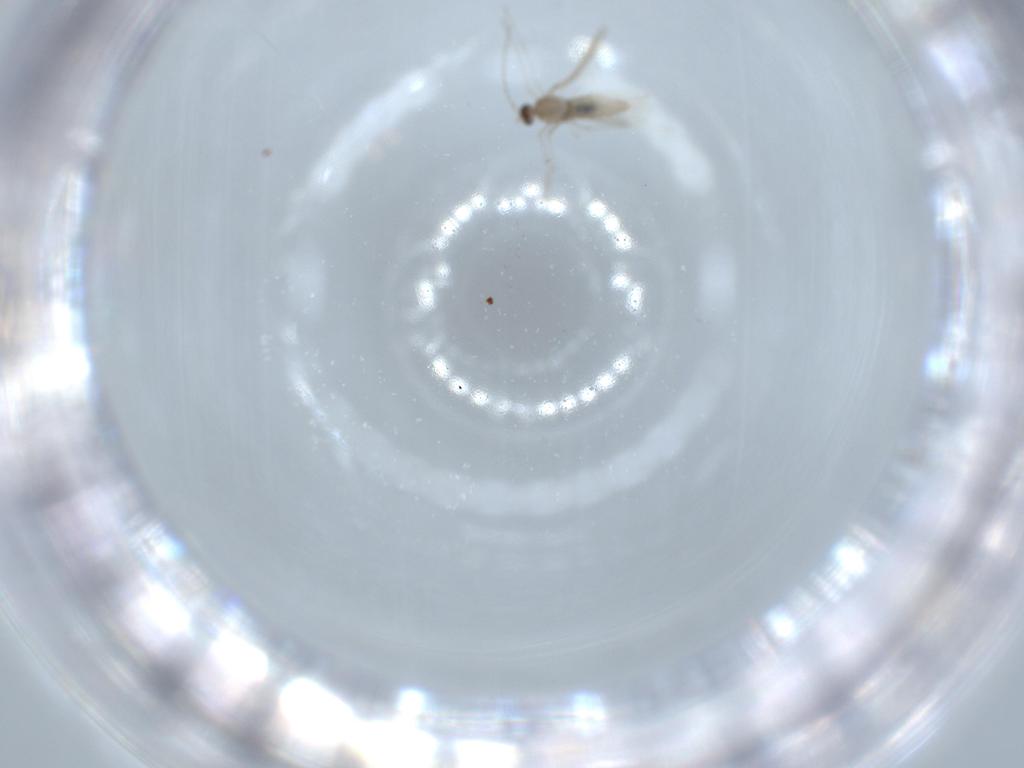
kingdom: Animalia
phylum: Arthropoda
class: Insecta
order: Diptera
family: Cecidomyiidae
